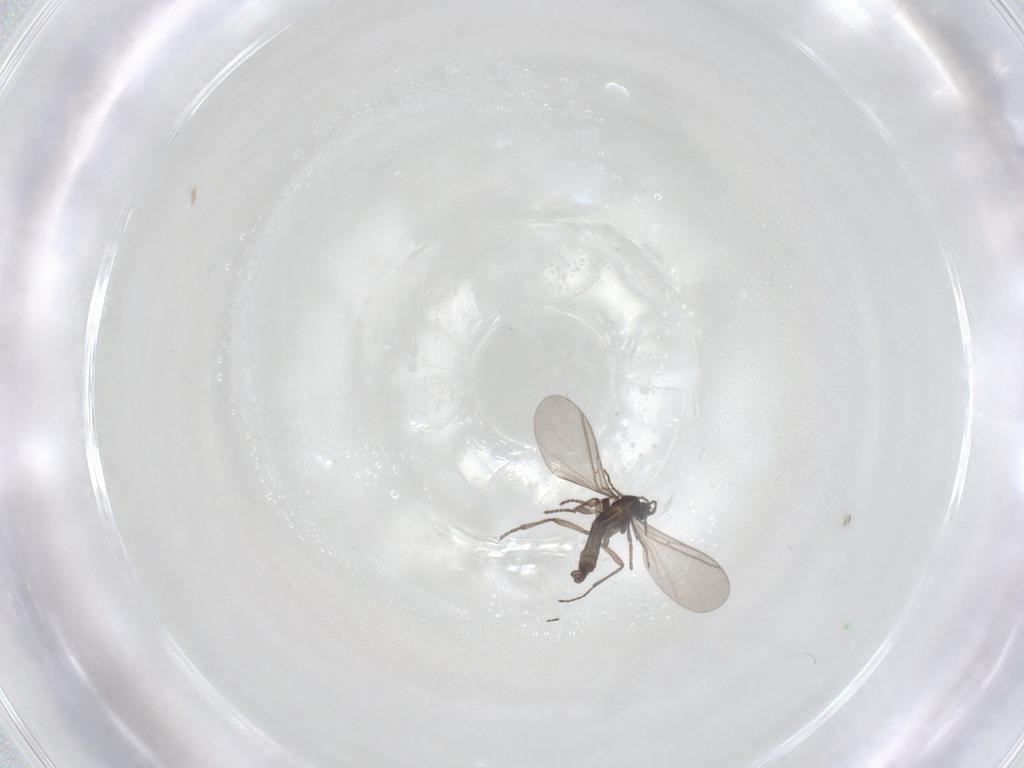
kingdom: Animalia
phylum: Arthropoda
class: Insecta
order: Diptera
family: Sciaridae
